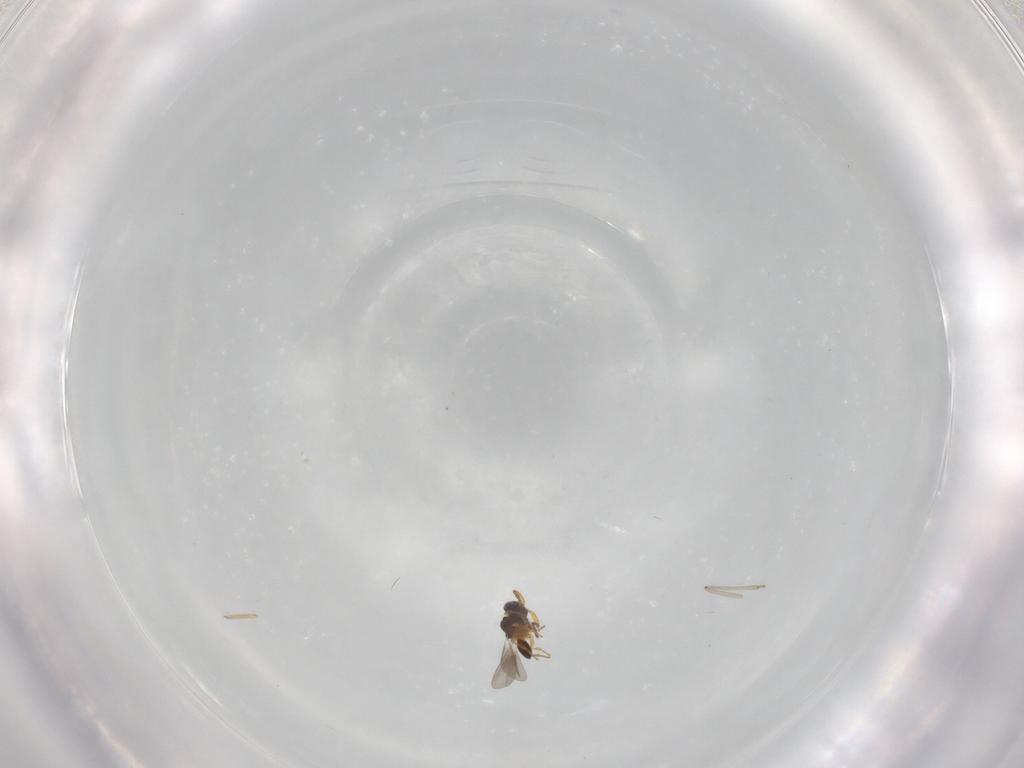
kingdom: Animalia
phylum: Arthropoda
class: Insecta
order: Hymenoptera
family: Platygastridae
